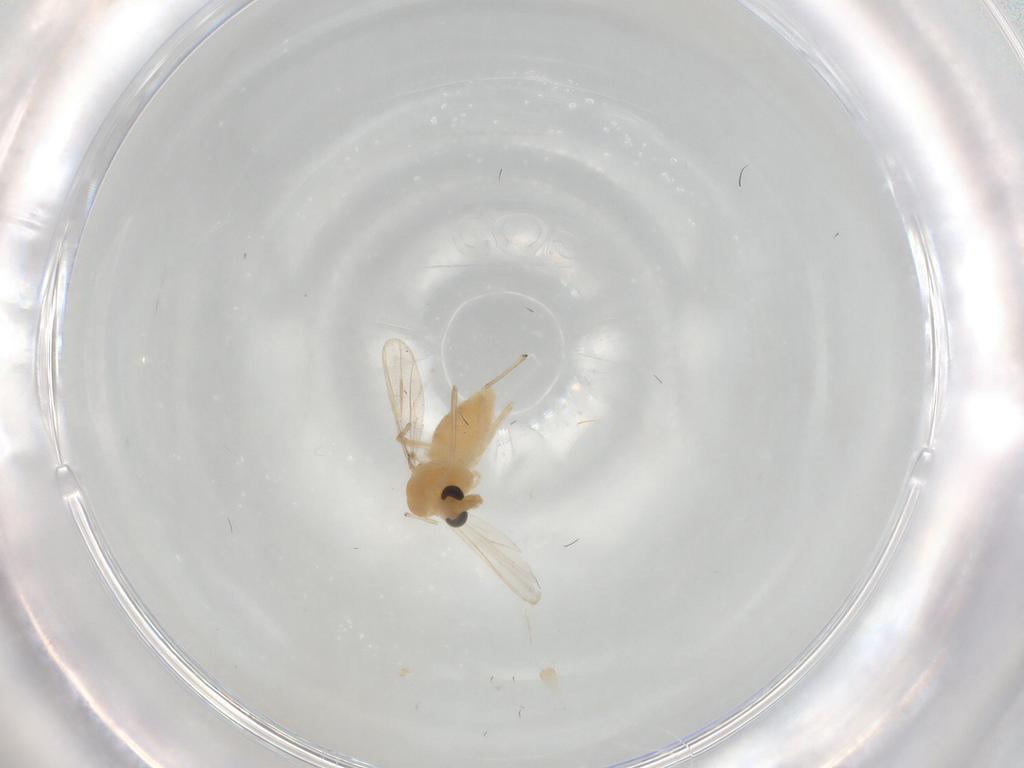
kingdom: Animalia
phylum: Arthropoda
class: Insecta
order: Diptera
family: Chironomidae
